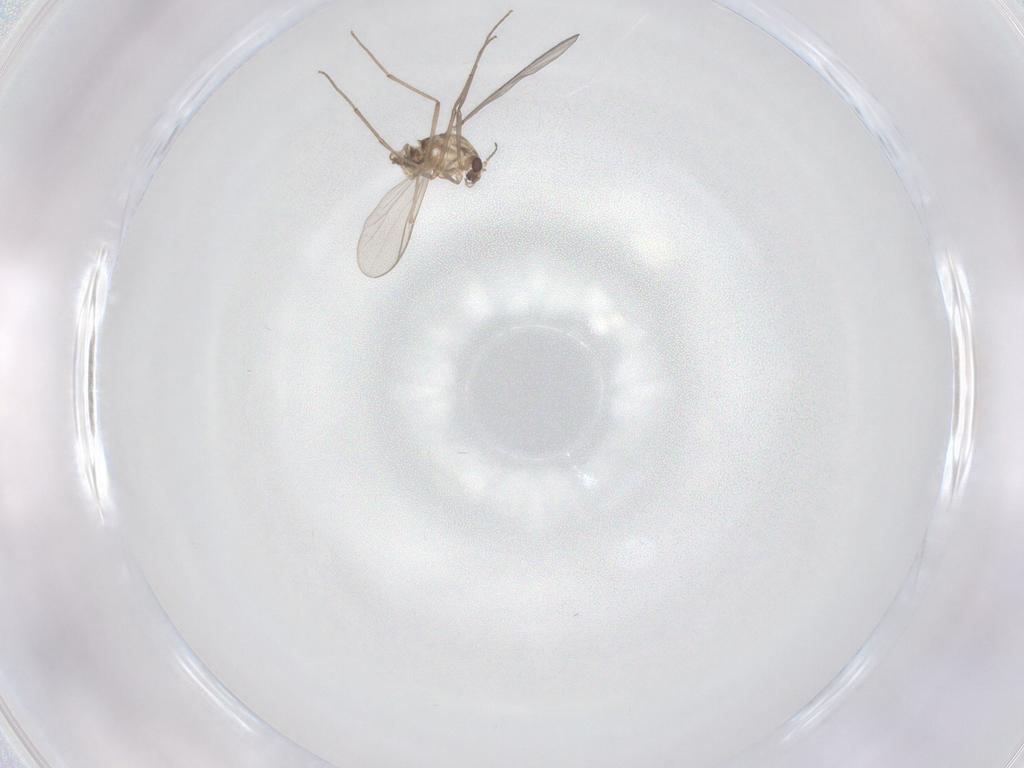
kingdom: Animalia
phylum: Arthropoda
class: Insecta
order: Diptera
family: Chironomidae
